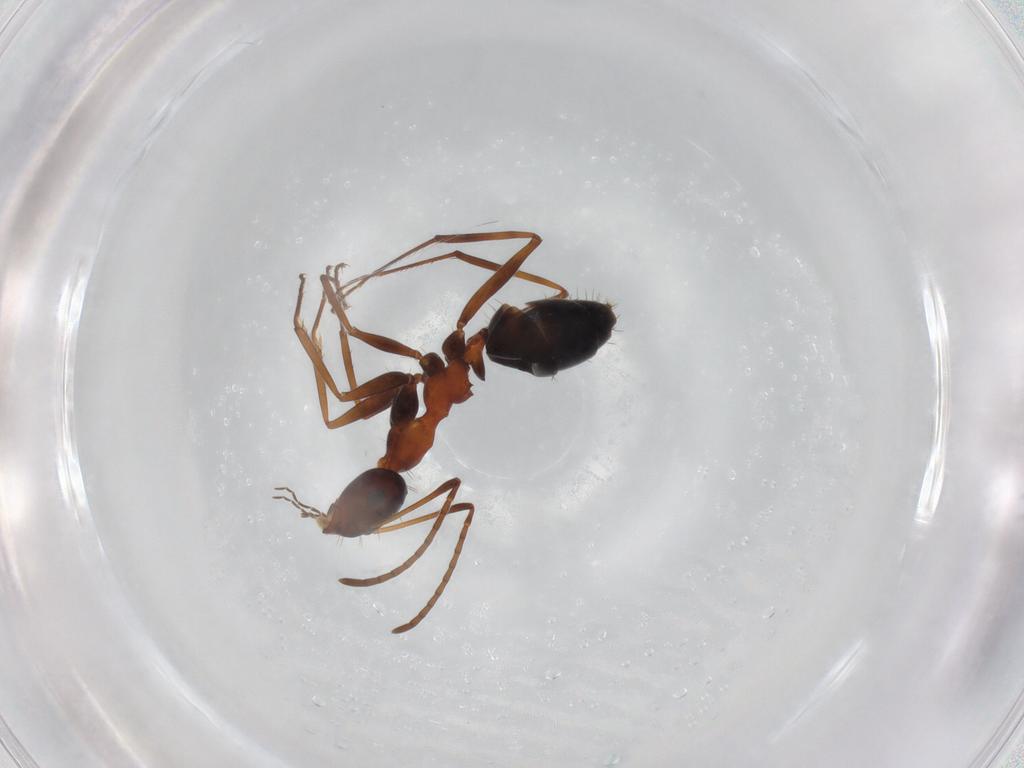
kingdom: Animalia
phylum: Arthropoda
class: Insecta
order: Hymenoptera
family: Formicidae
